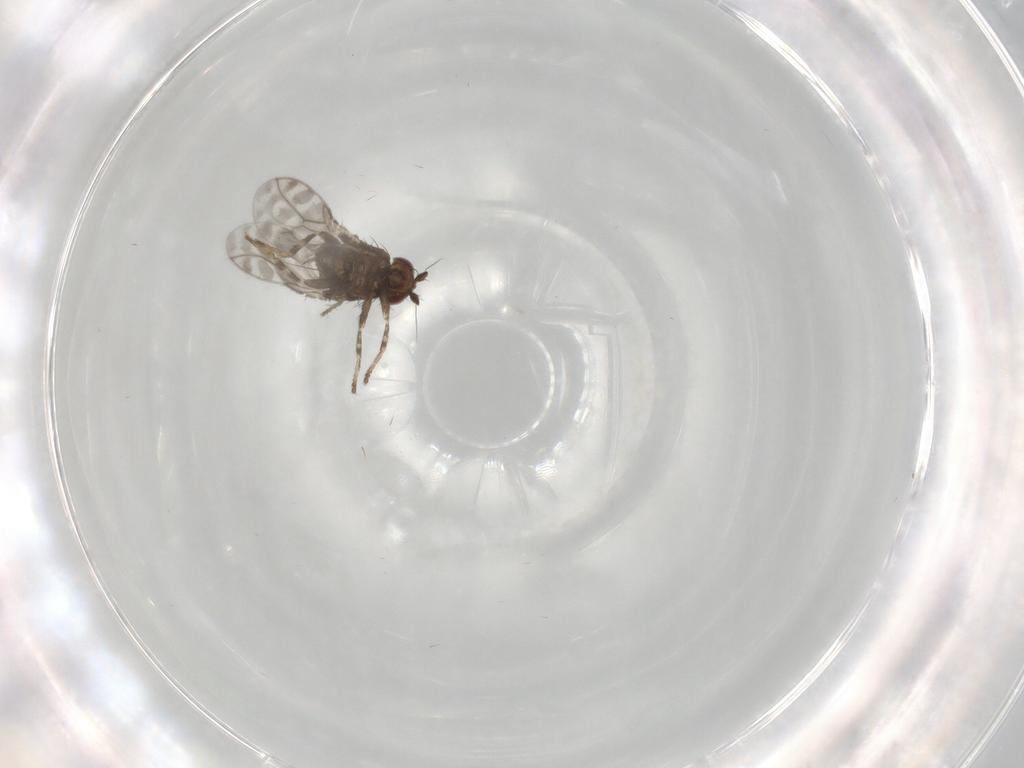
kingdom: Animalia
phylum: Arthropoda
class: Insecta
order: Diptera
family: Sphaeroceridae
